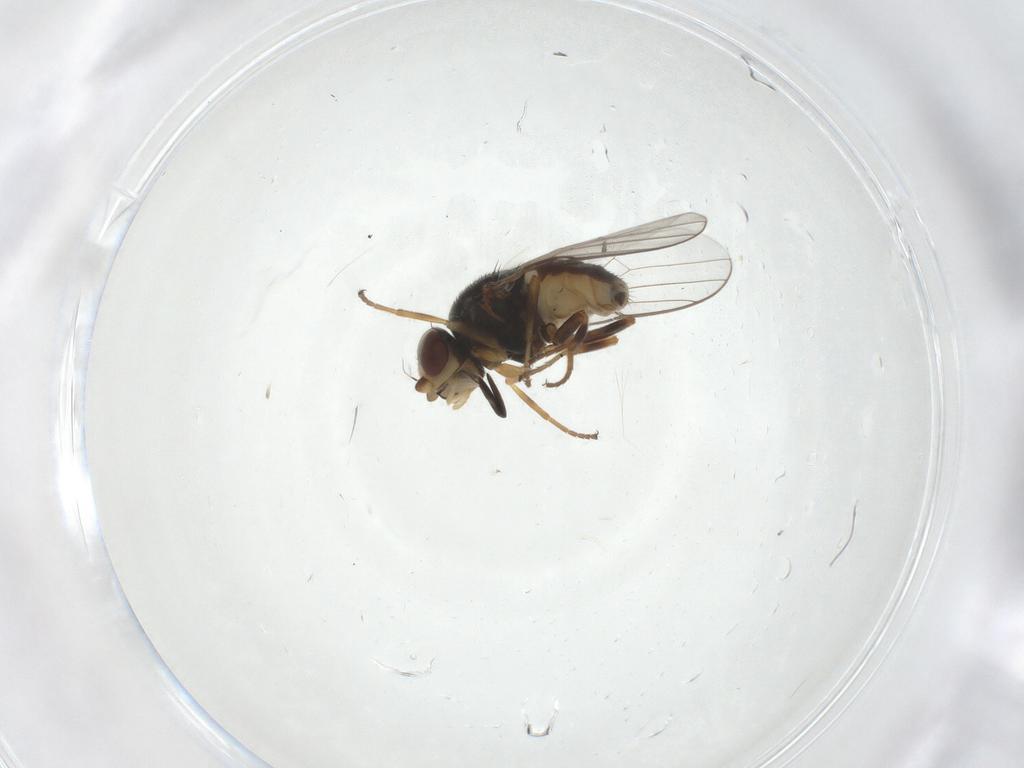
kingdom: Animalia
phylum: Arthropoda
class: Insecta
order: Diptera
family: Chloropidae
